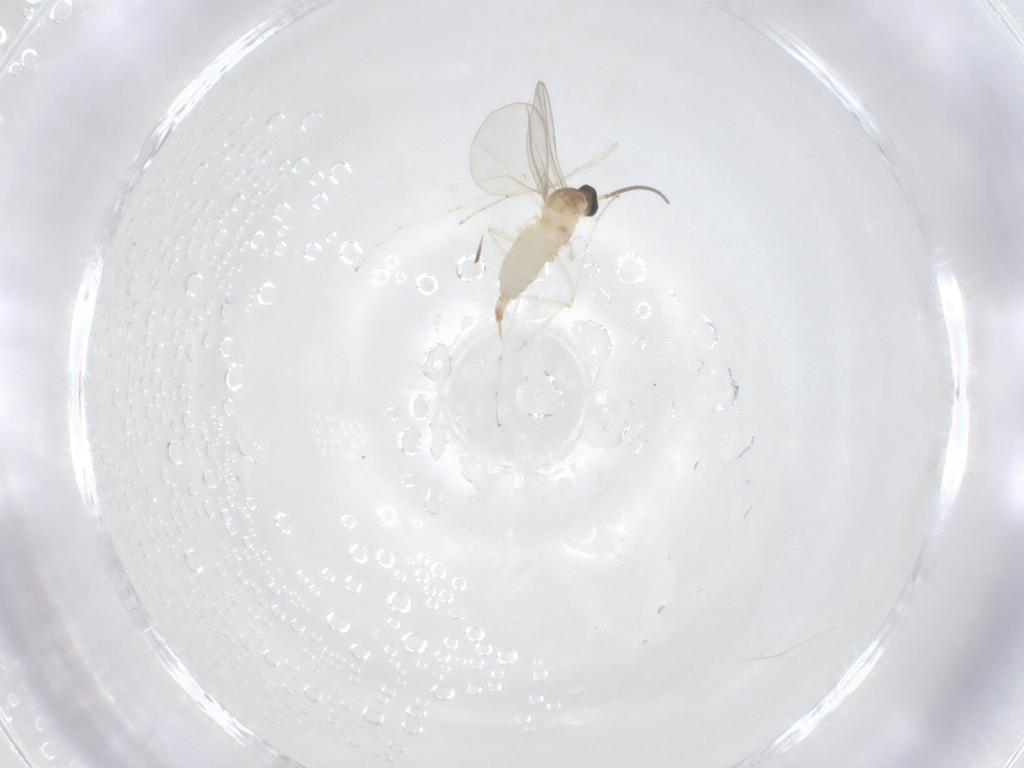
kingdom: Animalia
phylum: Arthropoda
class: Insecta
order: Diptera
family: Cecidomyiidae
